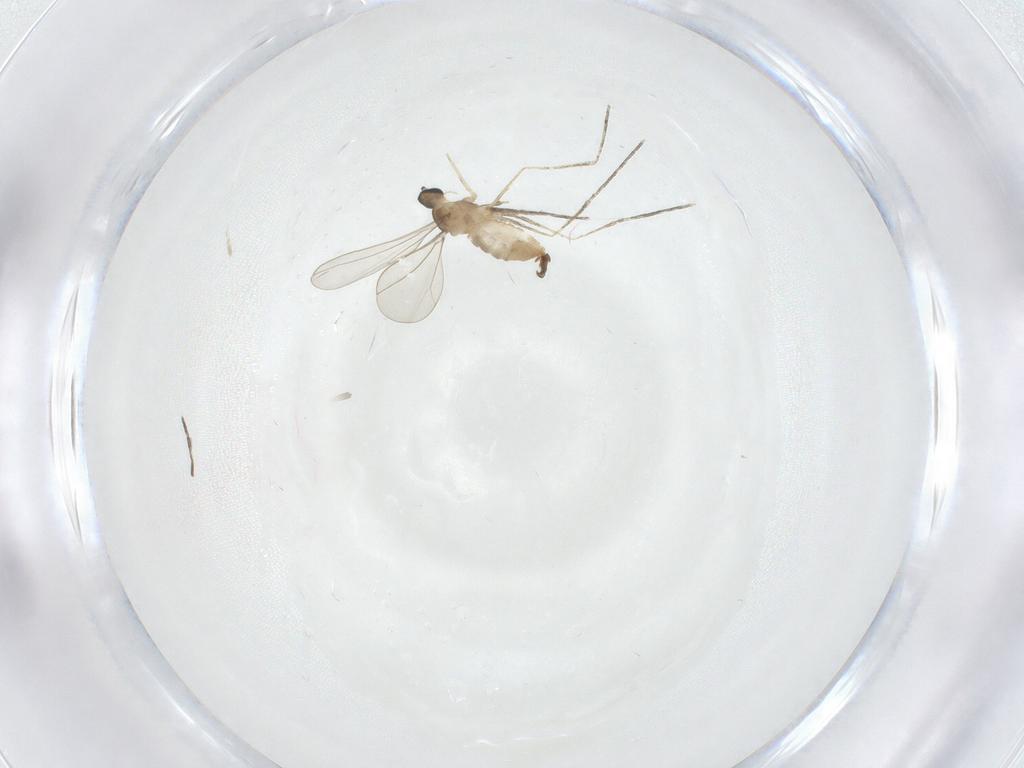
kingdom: Animalia
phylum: Arthropoda
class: Insecta
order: Diptera
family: Cecidomyiidae
